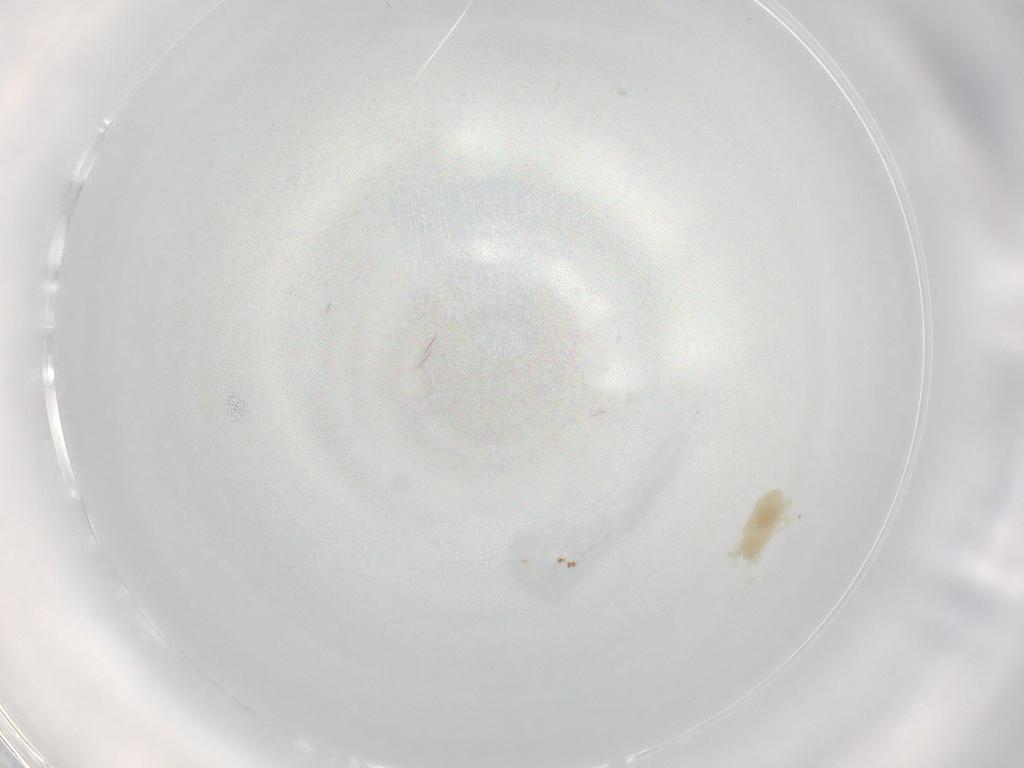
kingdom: Animalia
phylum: Arthropoda
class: Arachnida
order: Trombidiformes
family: Rhagidiidae
